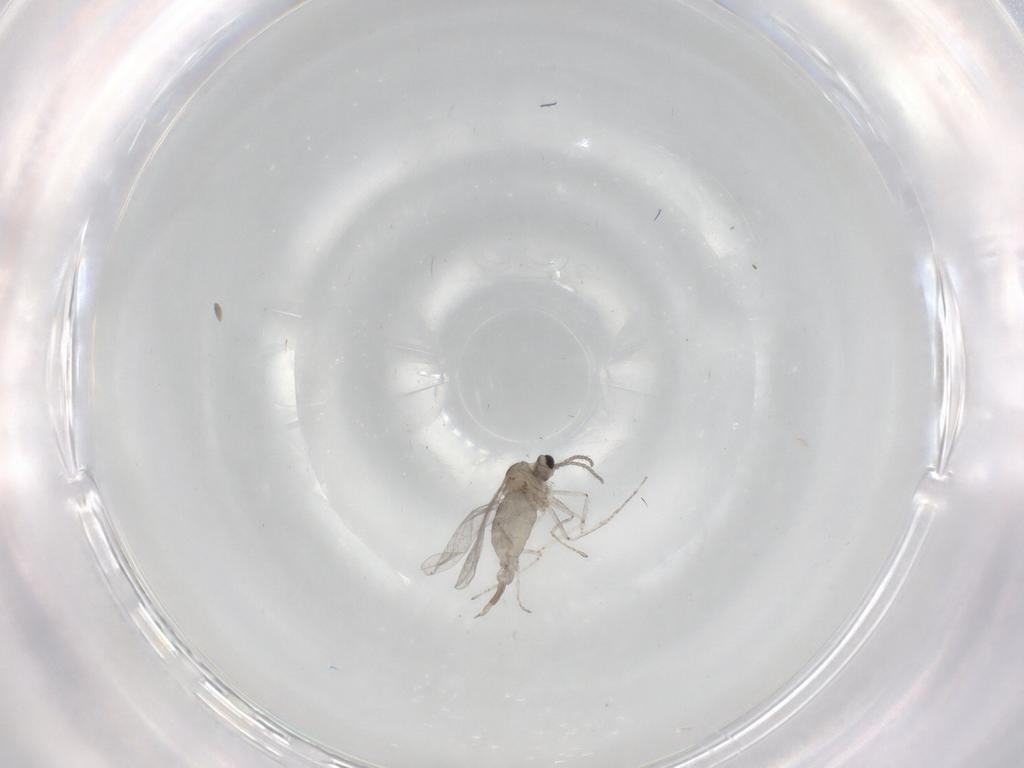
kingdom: Animalia
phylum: Arthropoda
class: Insecta
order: Diptera
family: Cecidomyiidae
